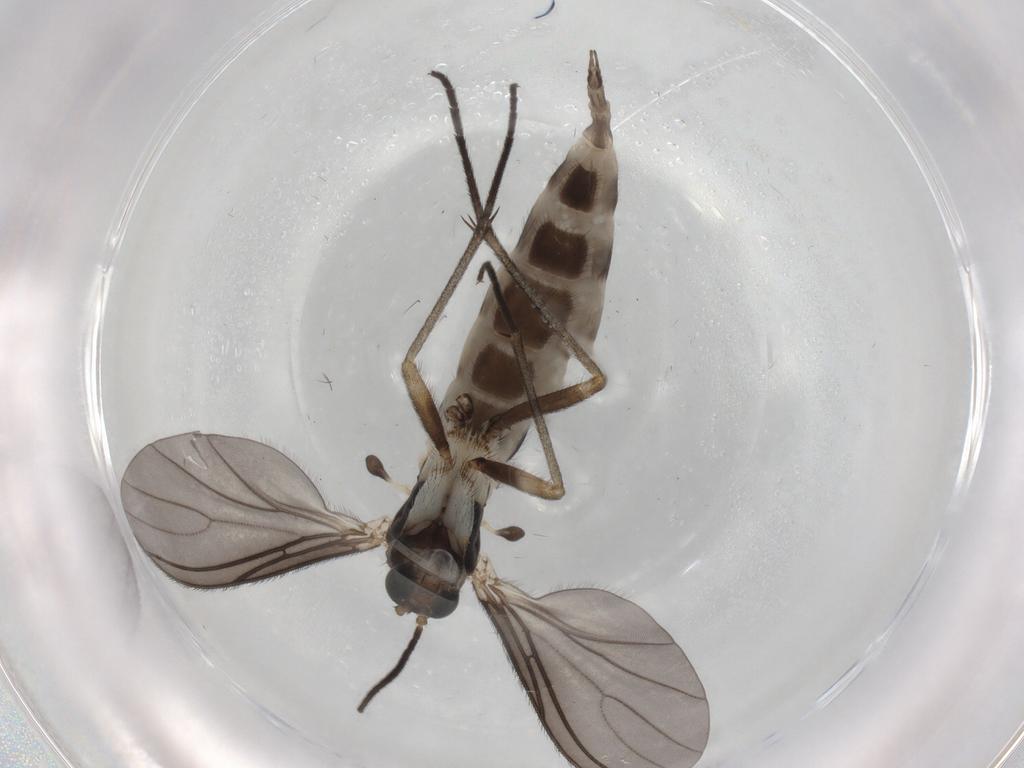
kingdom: Animalia
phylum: Arthropoda
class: Insecta
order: Diptera
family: Sciaridae
